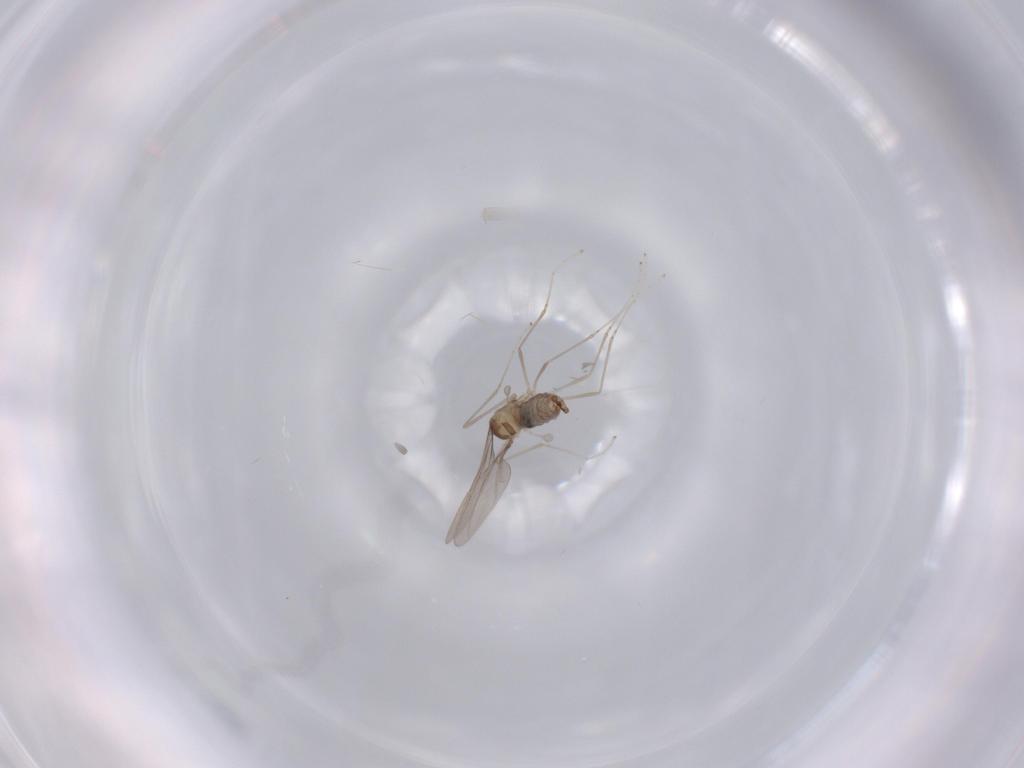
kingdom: Animalia
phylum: Arthropoda
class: Insecta
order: Diptera
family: Cecidomyiidae
